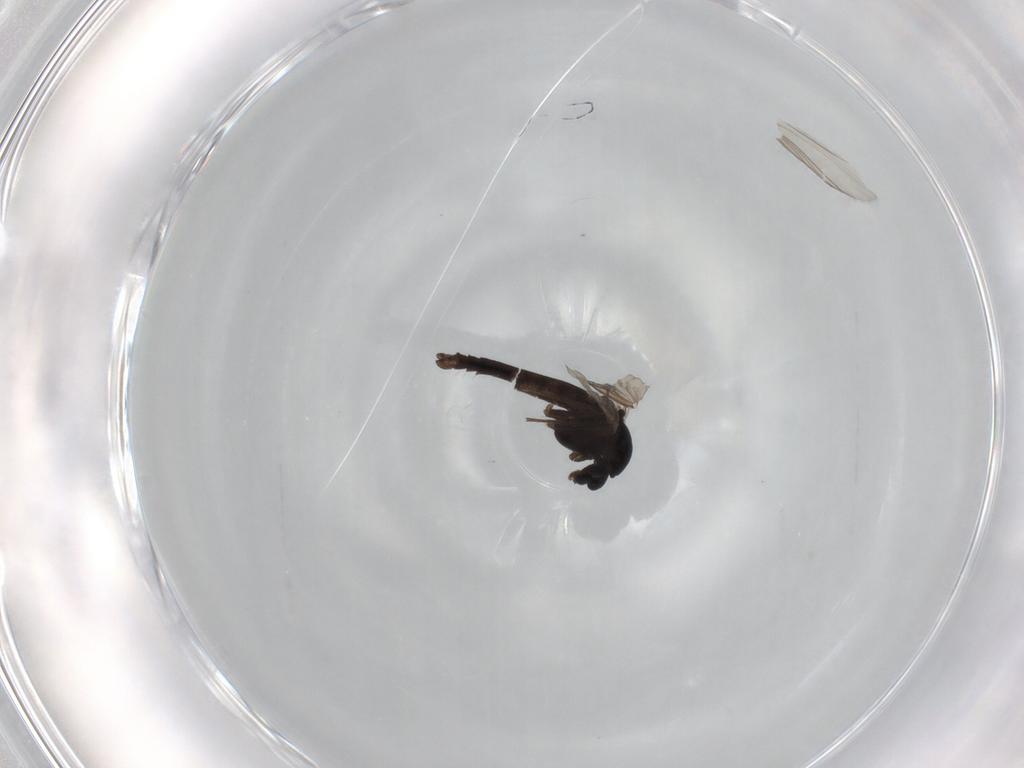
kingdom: Animalia
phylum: Arthropoda
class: Insecta
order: Diptera
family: Chironomidae
